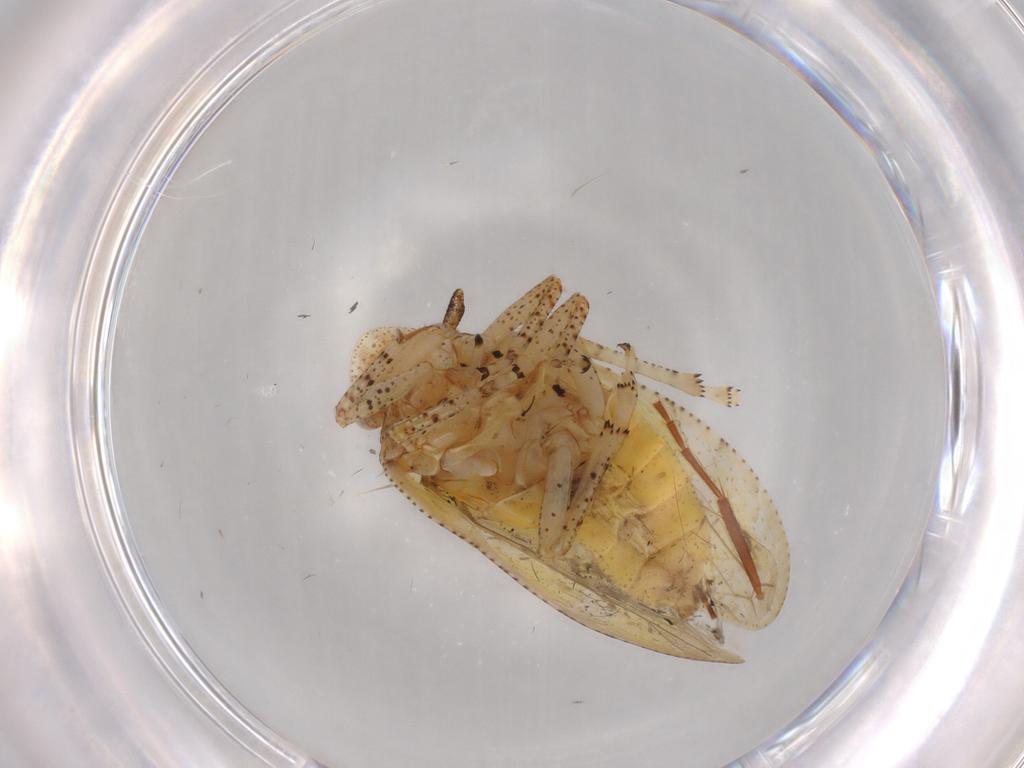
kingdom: Animalia
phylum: Arthropoda
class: Insecta
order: Hemiptera
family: Tettigometridae
